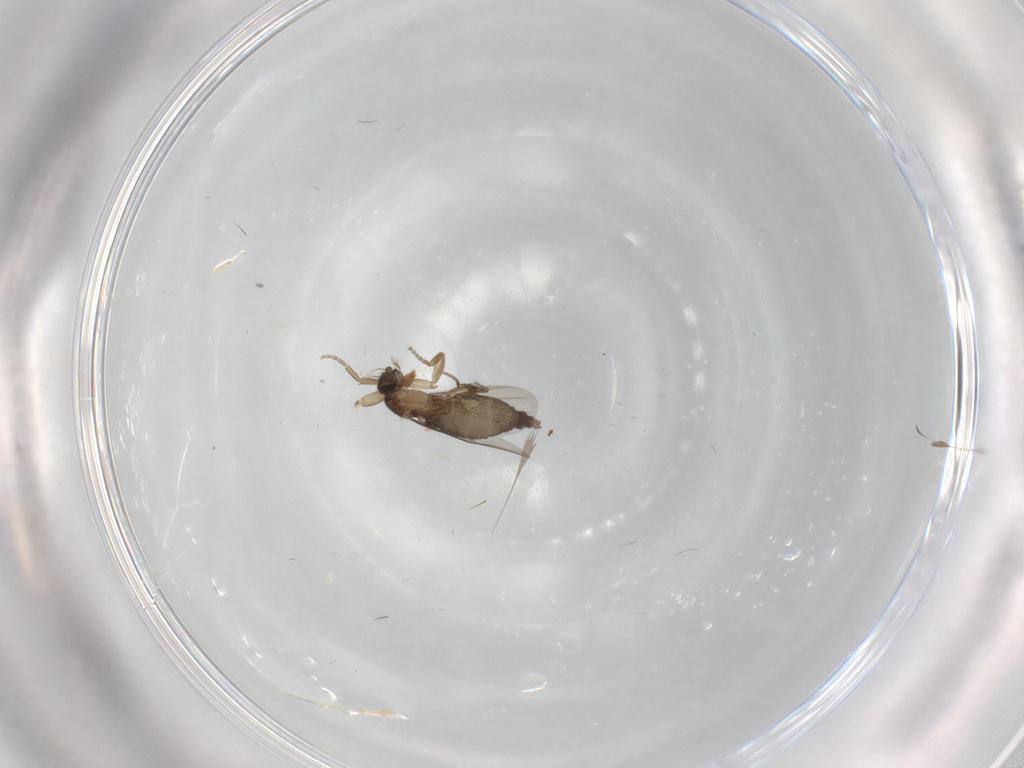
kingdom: Animalia
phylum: Arthropoda
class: Insecta
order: Diptera
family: Phoridae
